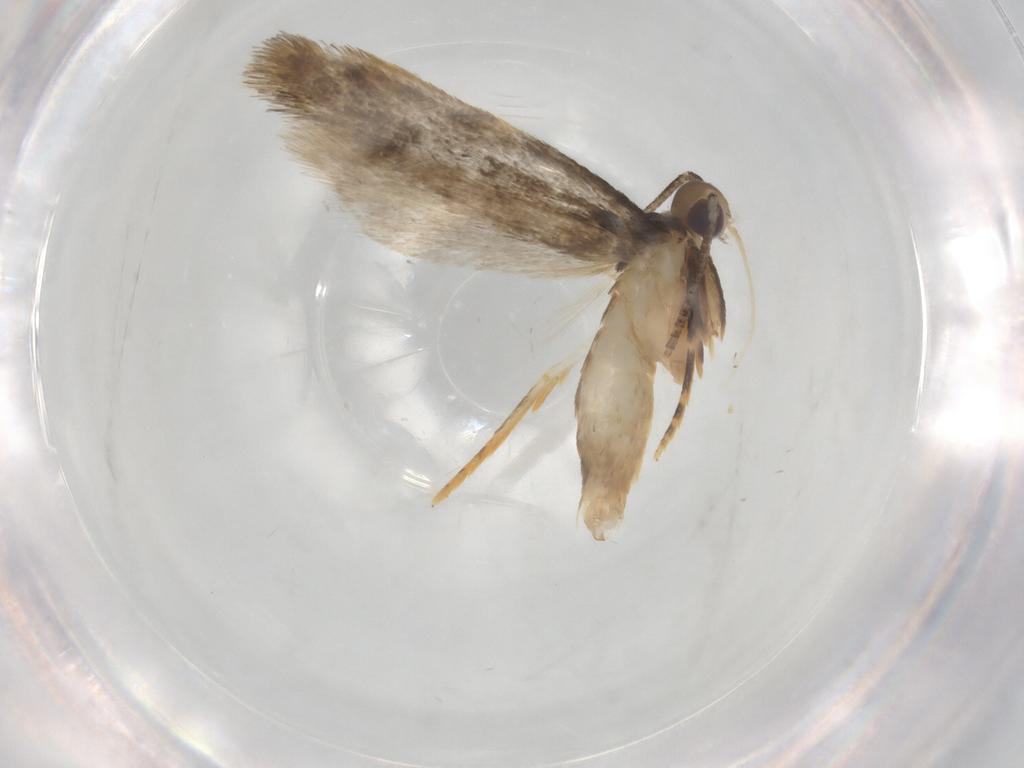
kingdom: Animalia
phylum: Arthropoda
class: Insecta
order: Lepidoptera
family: Autostichidae
